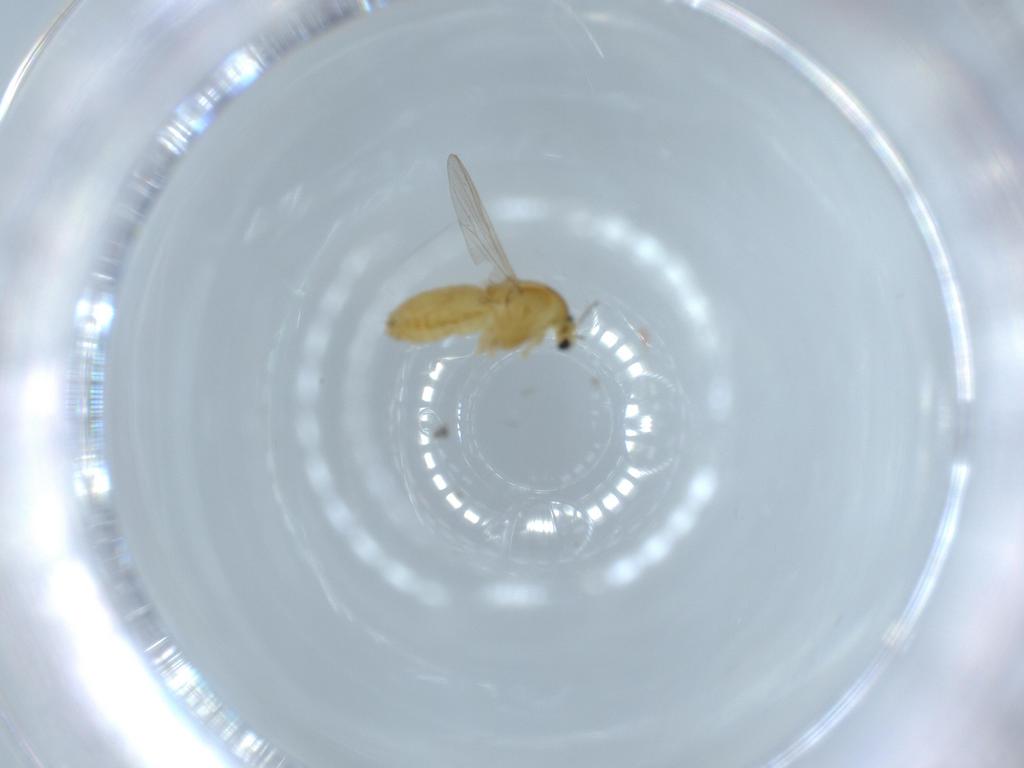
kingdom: Animalia
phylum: Arthropoda
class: Insecta
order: Diptera
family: Chironomidae
